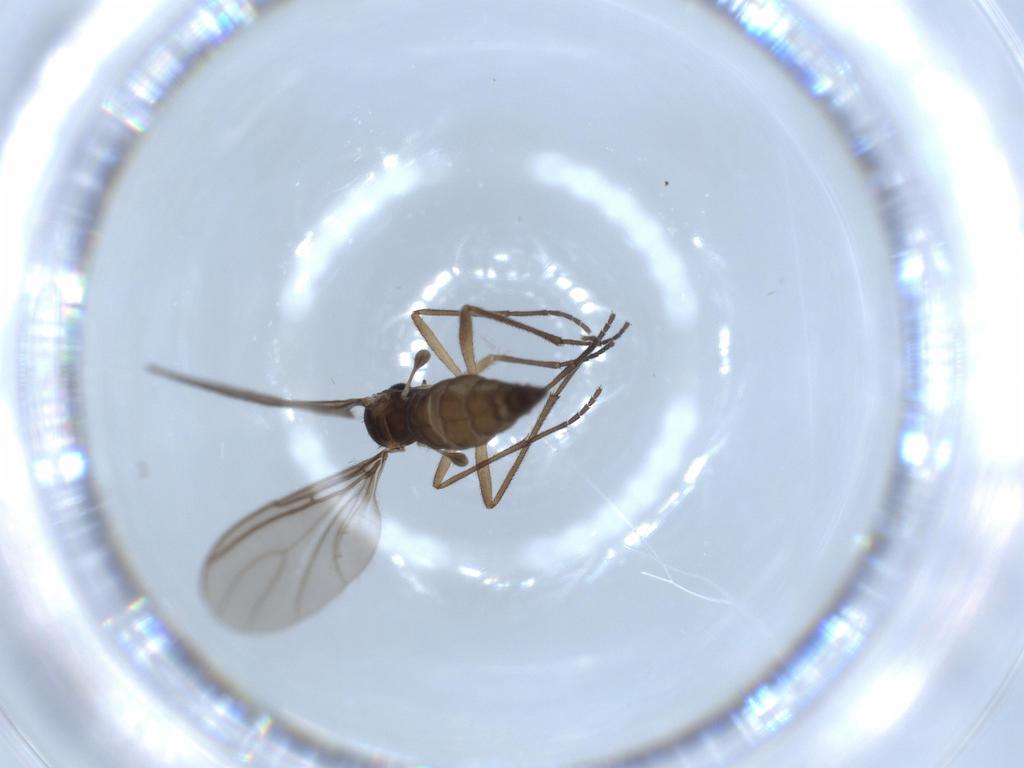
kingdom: Animalia
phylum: Arthropoda
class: Insecta
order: Diptera
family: Sciaridae
